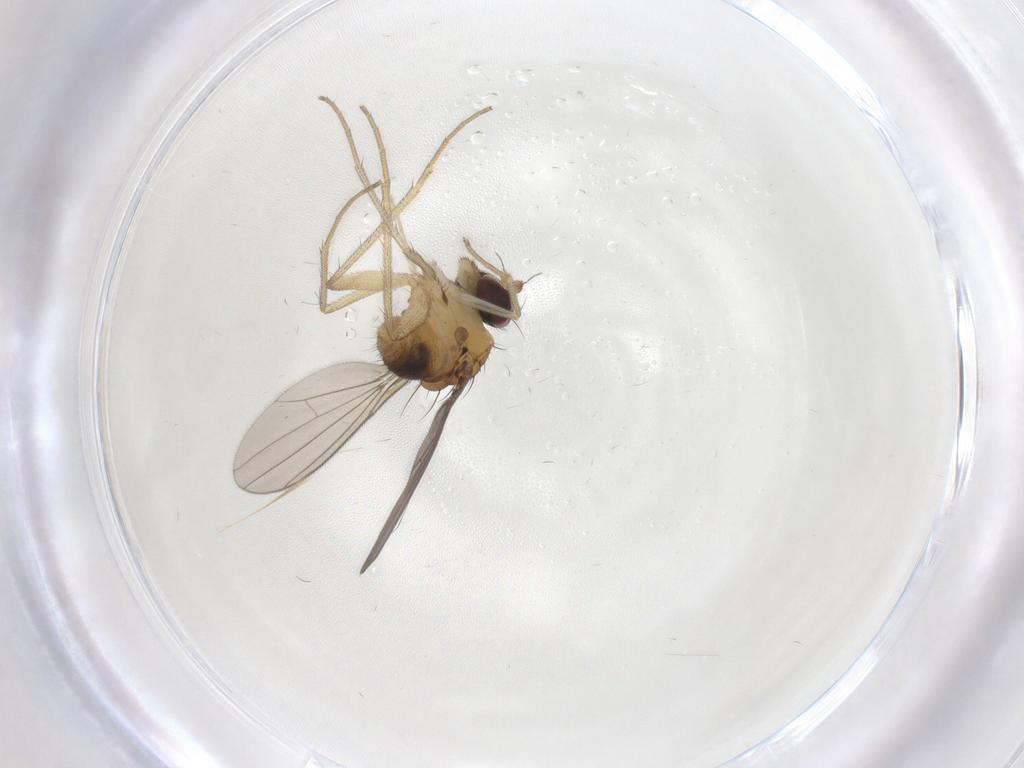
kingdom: Animalia
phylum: Arthropoda
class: Insecta
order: Diptera
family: Dolichopodidae
